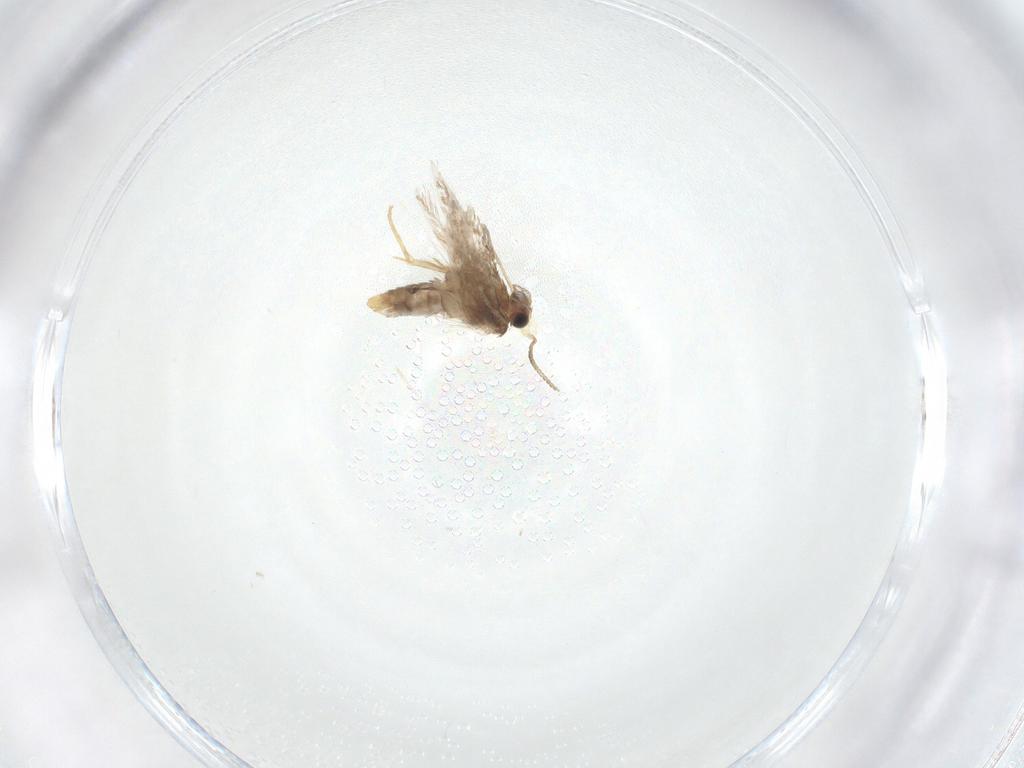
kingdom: Animalia
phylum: Arthropoda
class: Insecta
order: Lepidoptera
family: Nepticulidae
